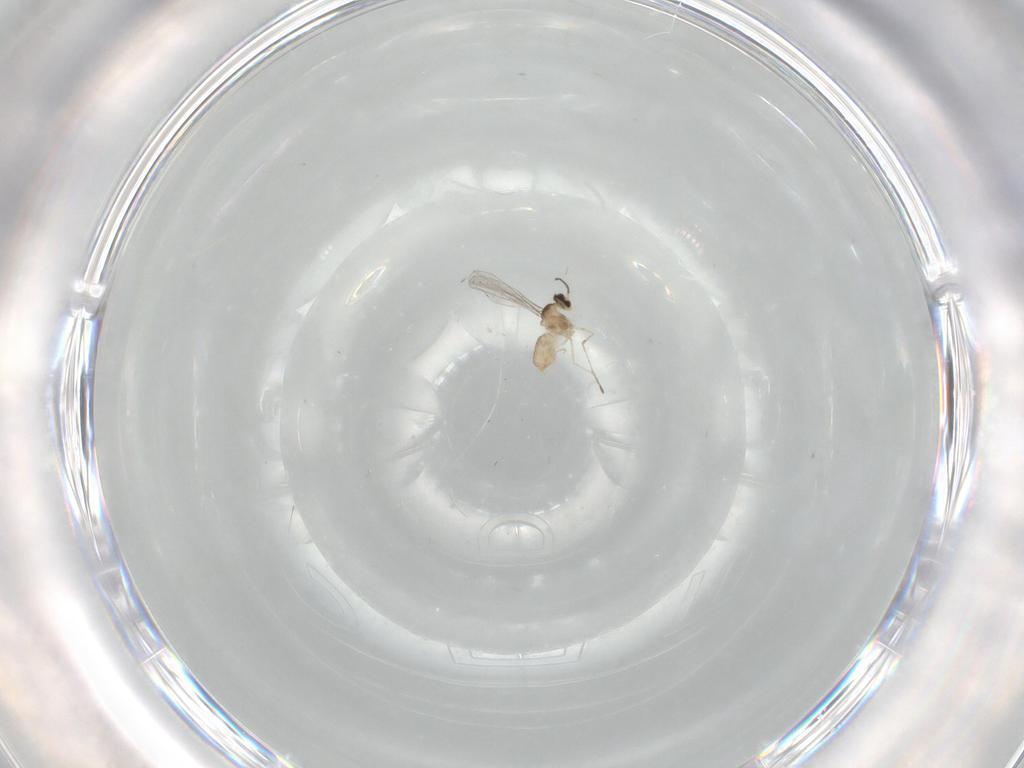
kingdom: Animalia
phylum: Arthropoda
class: Insecta
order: Diptera
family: Cecidomyiidae
